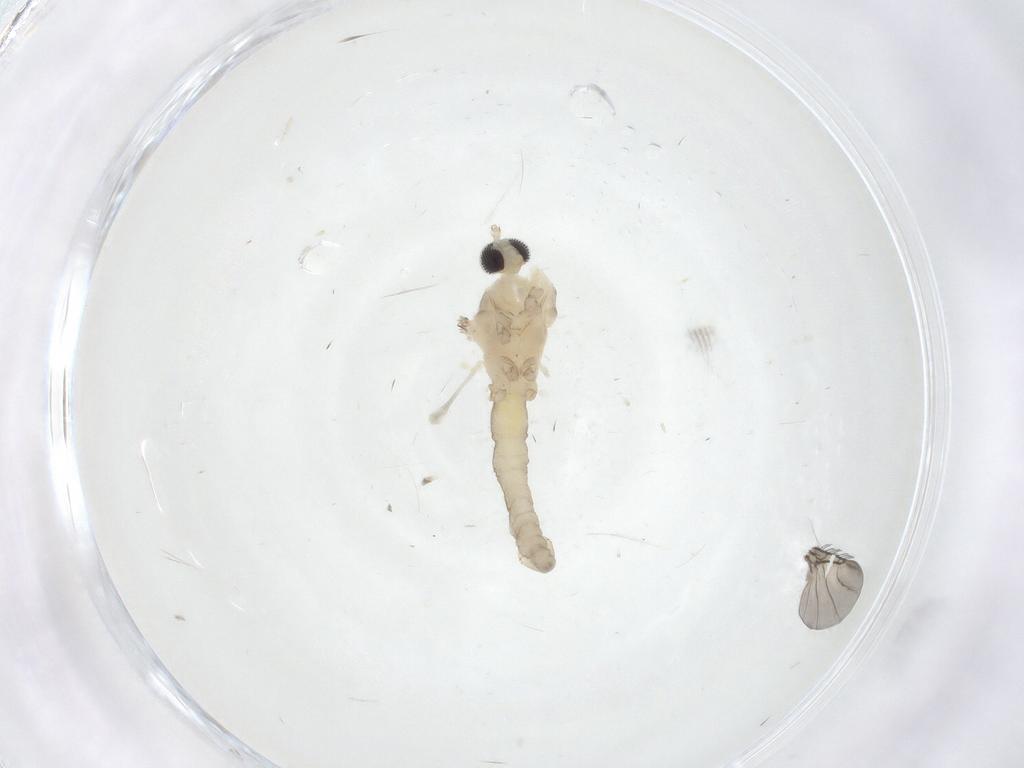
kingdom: Animalia
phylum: Arthropoda
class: Insecta
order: Diptera
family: Cecidomyiidae
